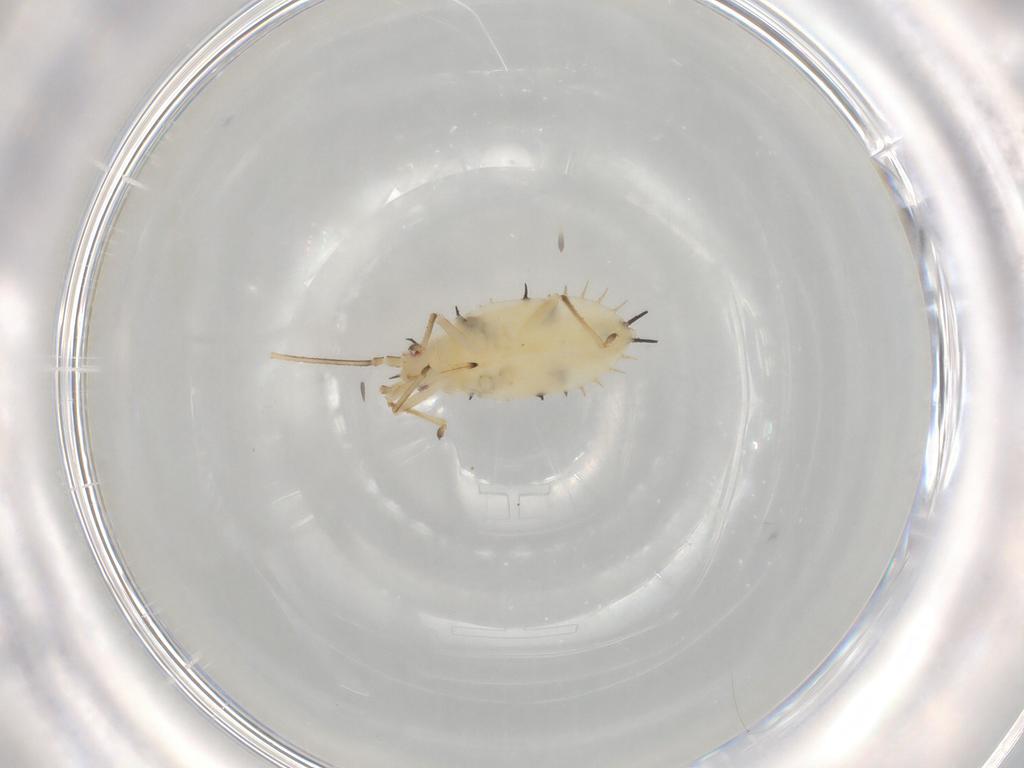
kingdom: Animalia
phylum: Arthropoda
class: Insecta
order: Hemiptera
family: Tingidae
